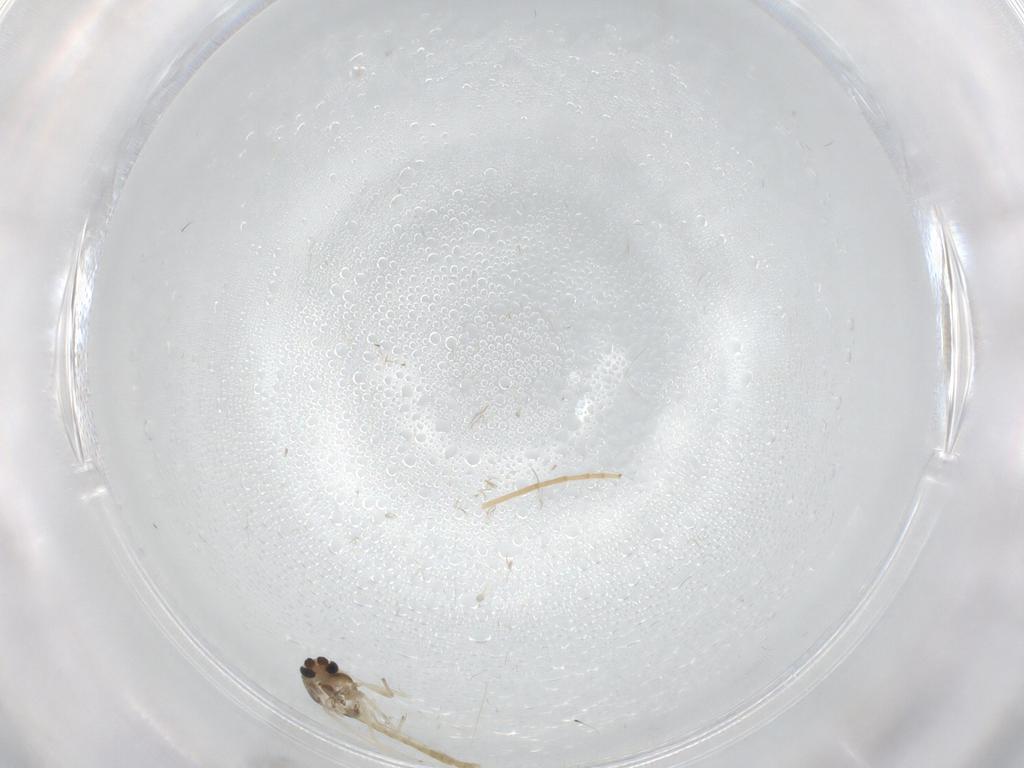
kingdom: Animalia
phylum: Arthropoda
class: Insecta
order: Diptera
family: Chironomidae
